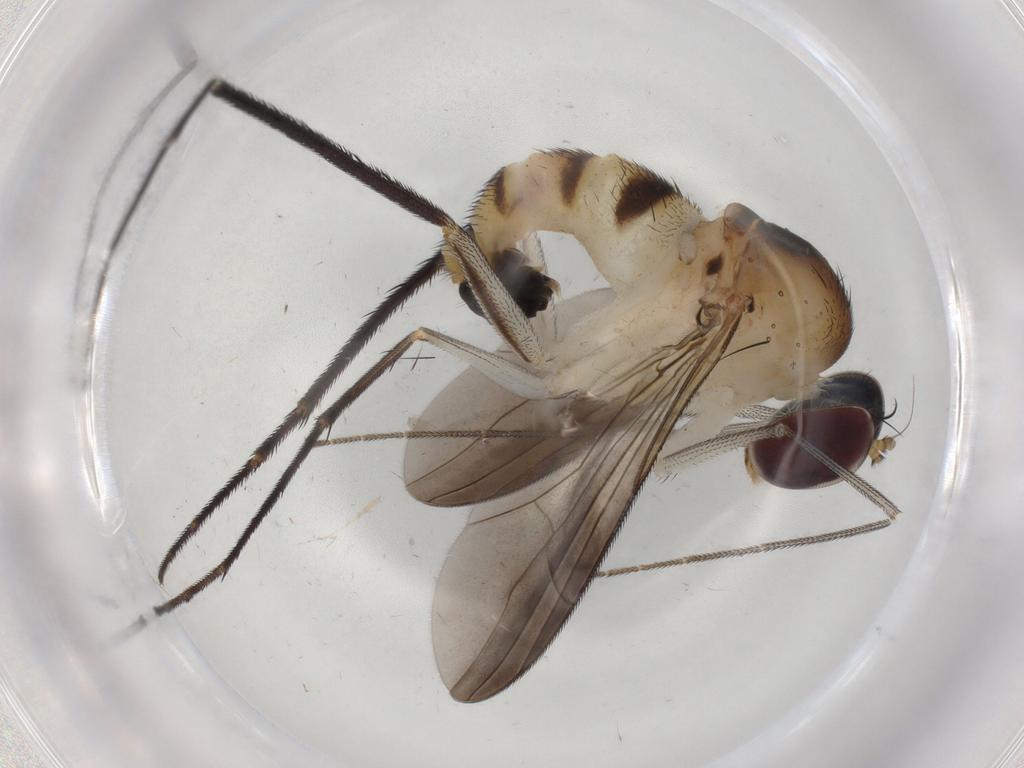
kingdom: Animalia
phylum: Arthropoda
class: Insecta
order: Diptera
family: Dolichopodidae
